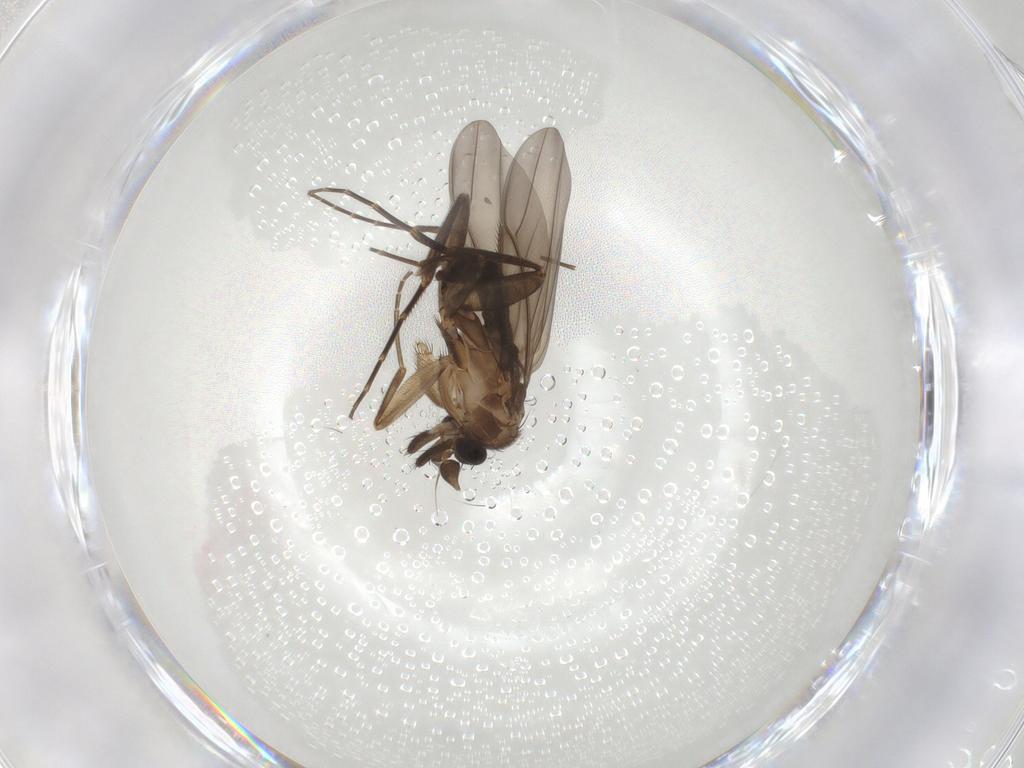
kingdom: Animalia
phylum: Arthropoda
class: Insecta
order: Diptera
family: Phoridae
